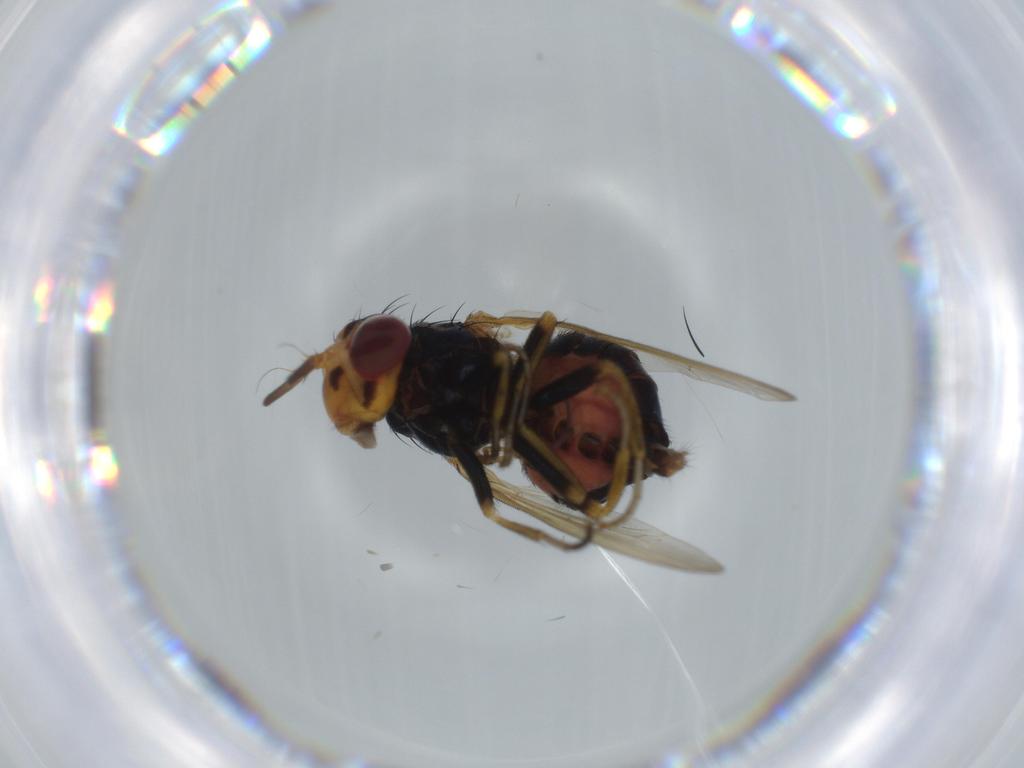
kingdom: Animalia
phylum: Arthropoda
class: Insecta
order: Diptera
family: Cecidomyiidae
